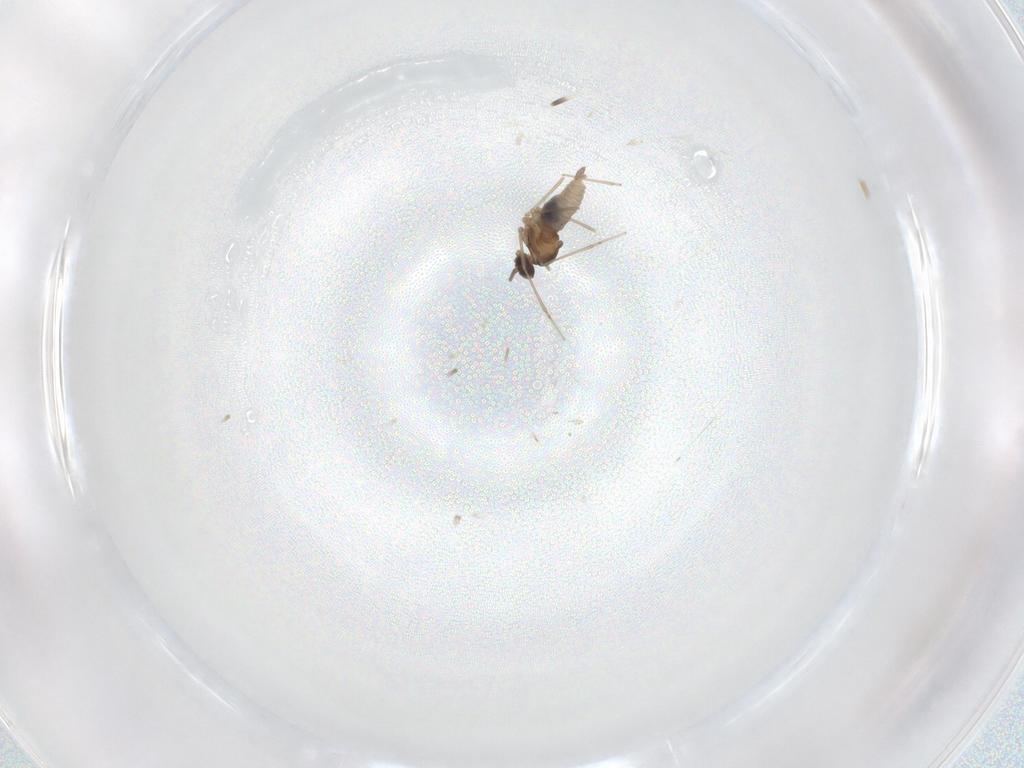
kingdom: Animalia
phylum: Arthropoda
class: Insecta
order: Diptera
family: Cecidomyiidae
